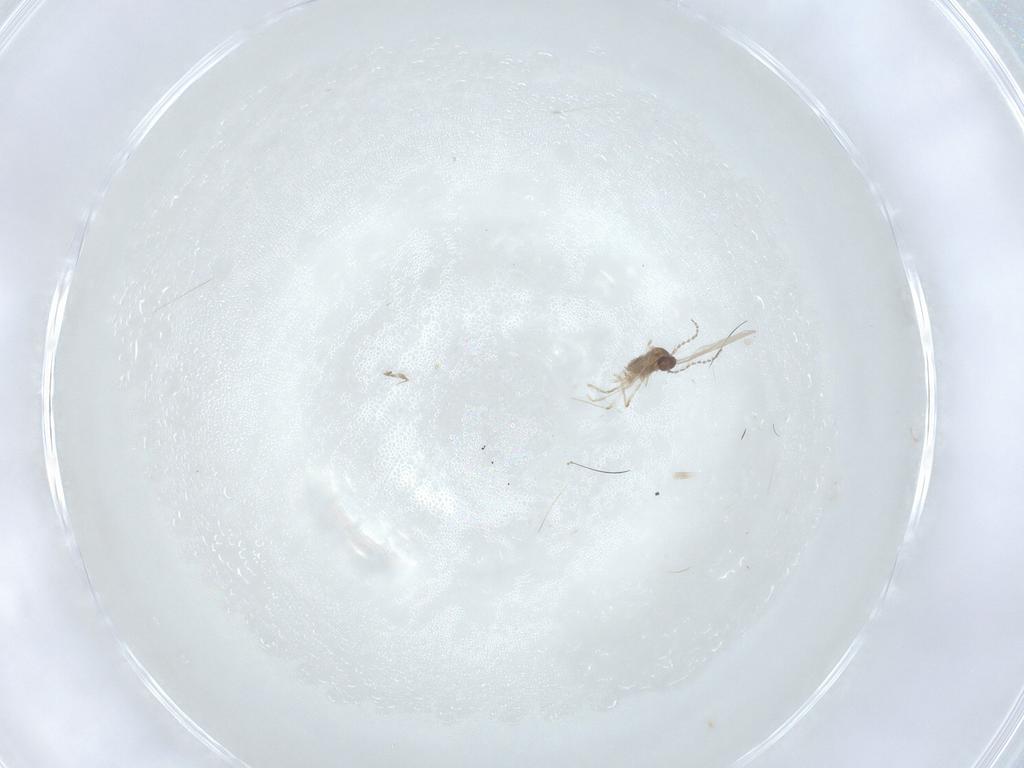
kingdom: Animalia
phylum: Arthropoda
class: Insecta
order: Diptera
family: Cecidomyiidae
